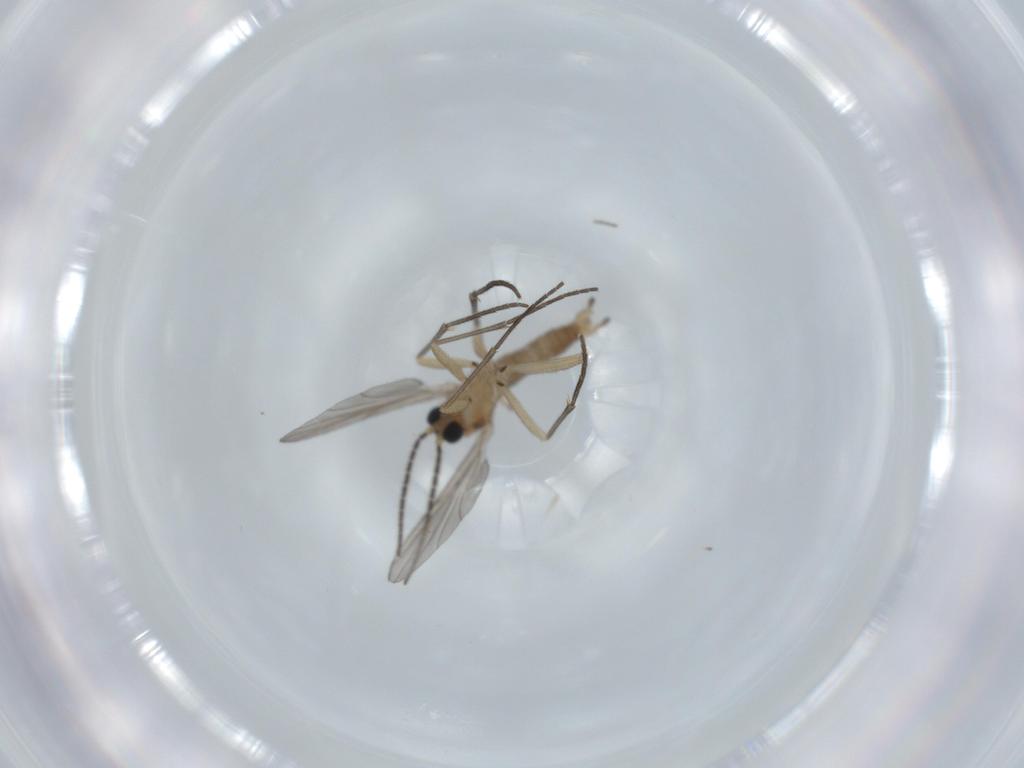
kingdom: Animalia
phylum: Arthropoda
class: Insecta
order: Diptera
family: Sciaridae
